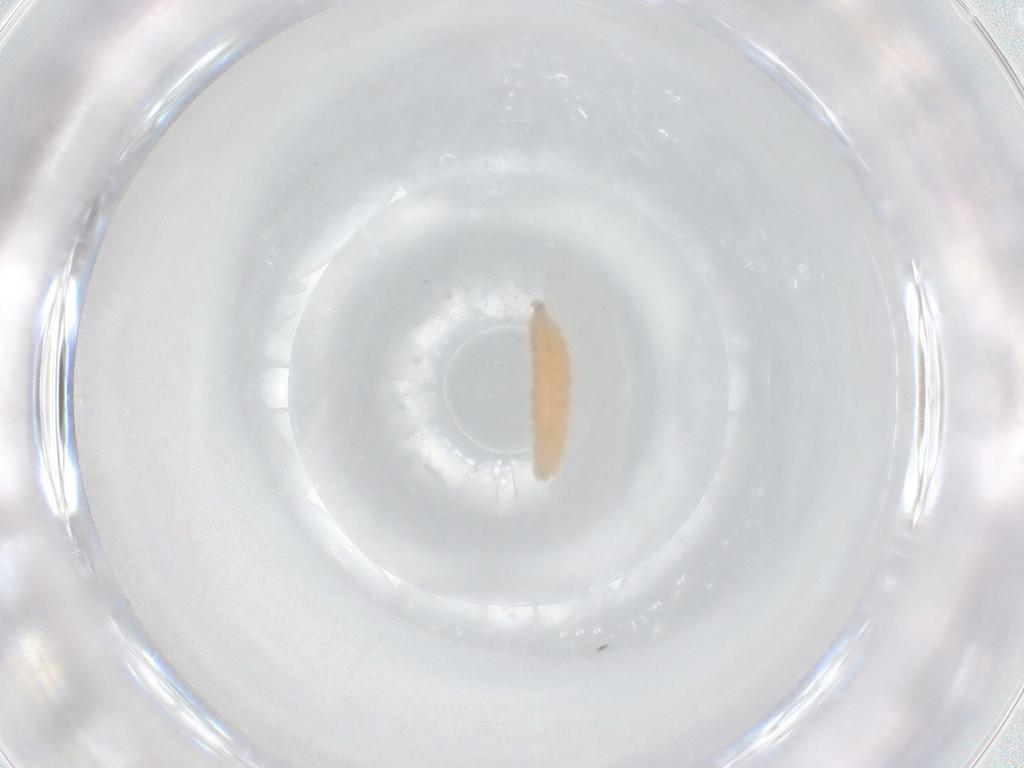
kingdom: Animalia
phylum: Arthropoda
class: Insecta
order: Diptera
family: Cecidomyiidae
